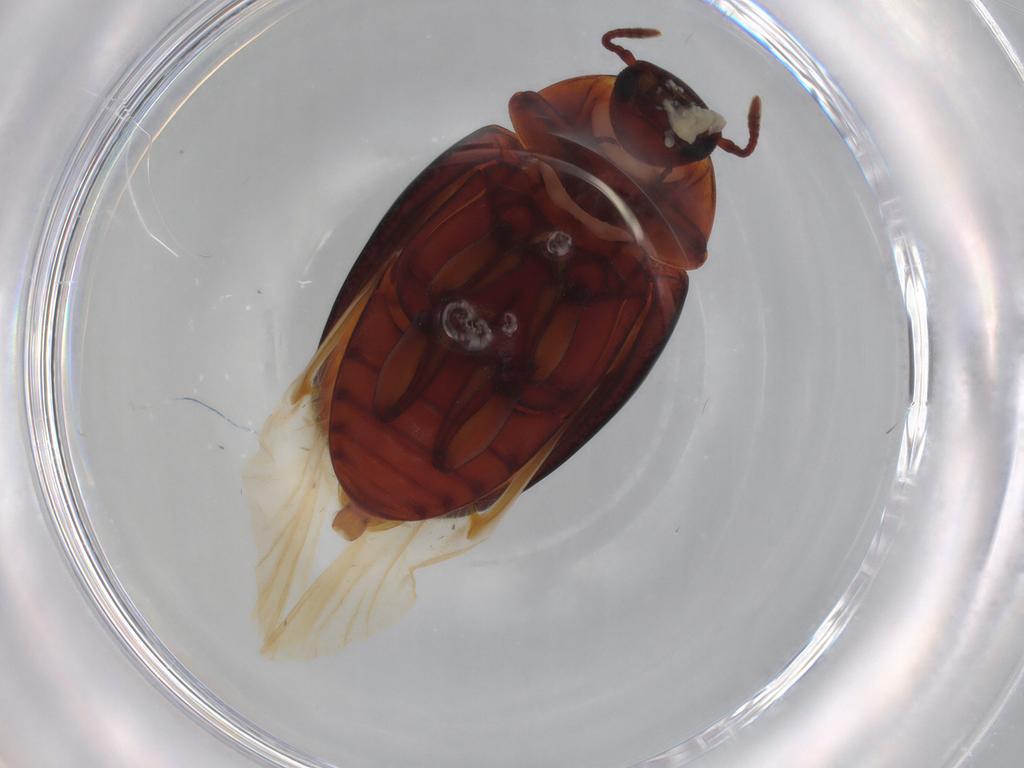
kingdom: Animalia
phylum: Arthropoda
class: Insecta
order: Coleoptera
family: Zopheridae
